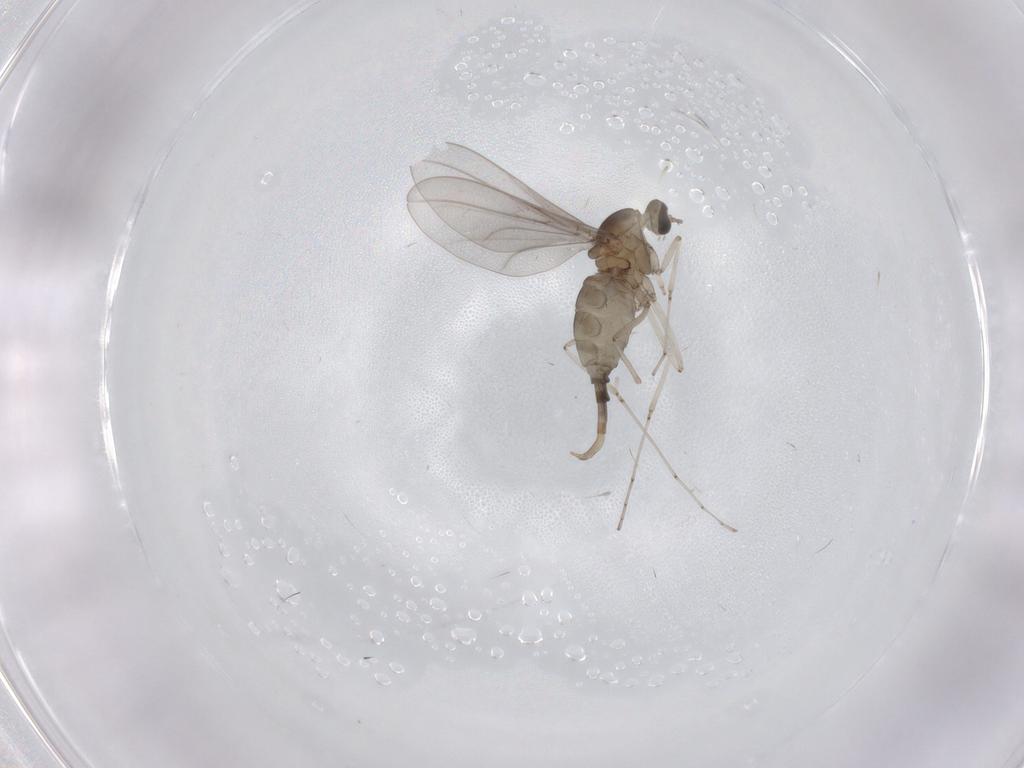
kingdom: Animalia
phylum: Arthropoda
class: Insecta
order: Diptera
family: Cecidomyiidae
